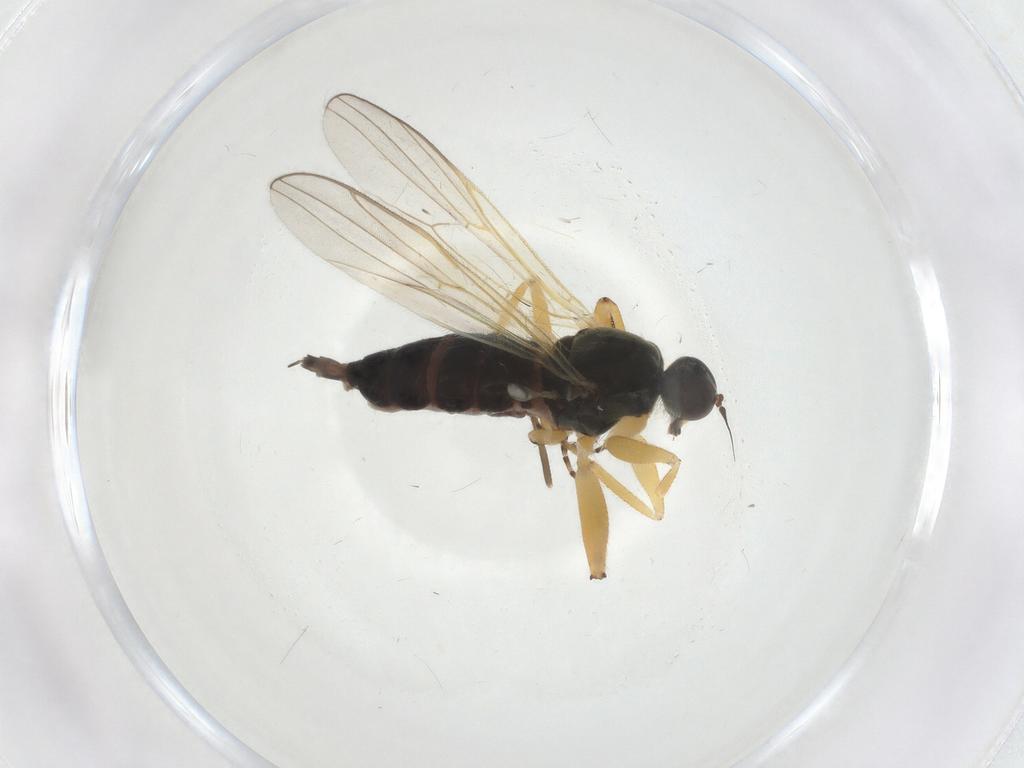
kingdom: Animalia
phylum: Arthropoda
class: Insecta
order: Diptera
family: Hybotidae
